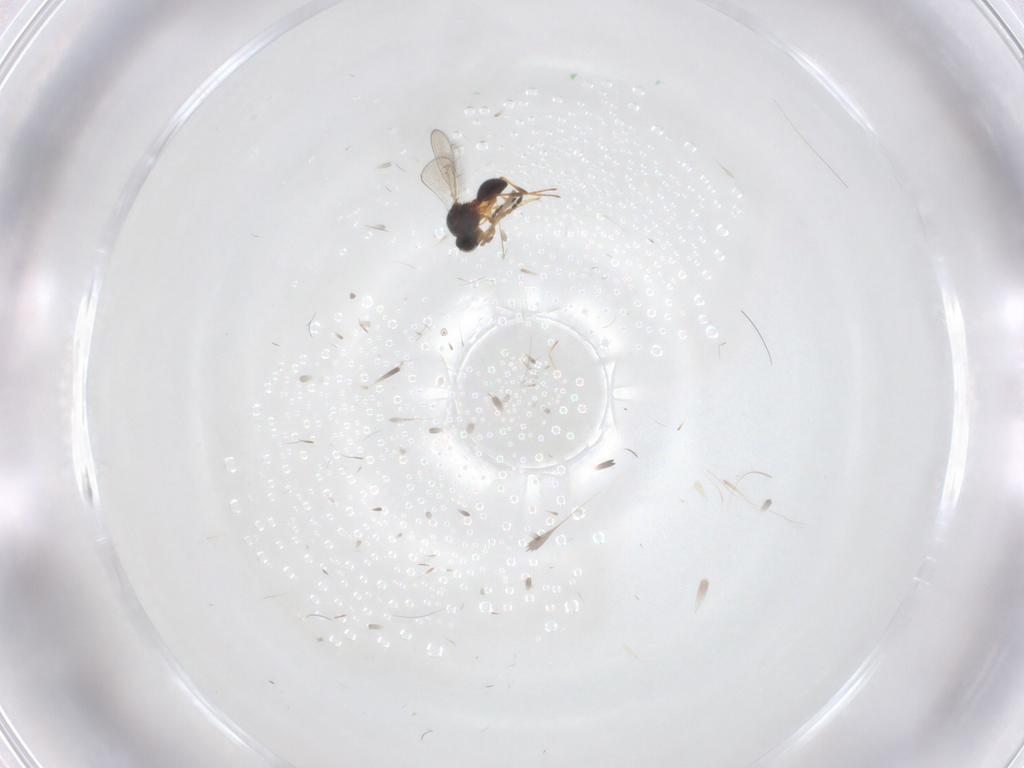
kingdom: Animalia
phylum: Arthropoda
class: Insecta
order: Hymenoptera
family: Platygastridae
